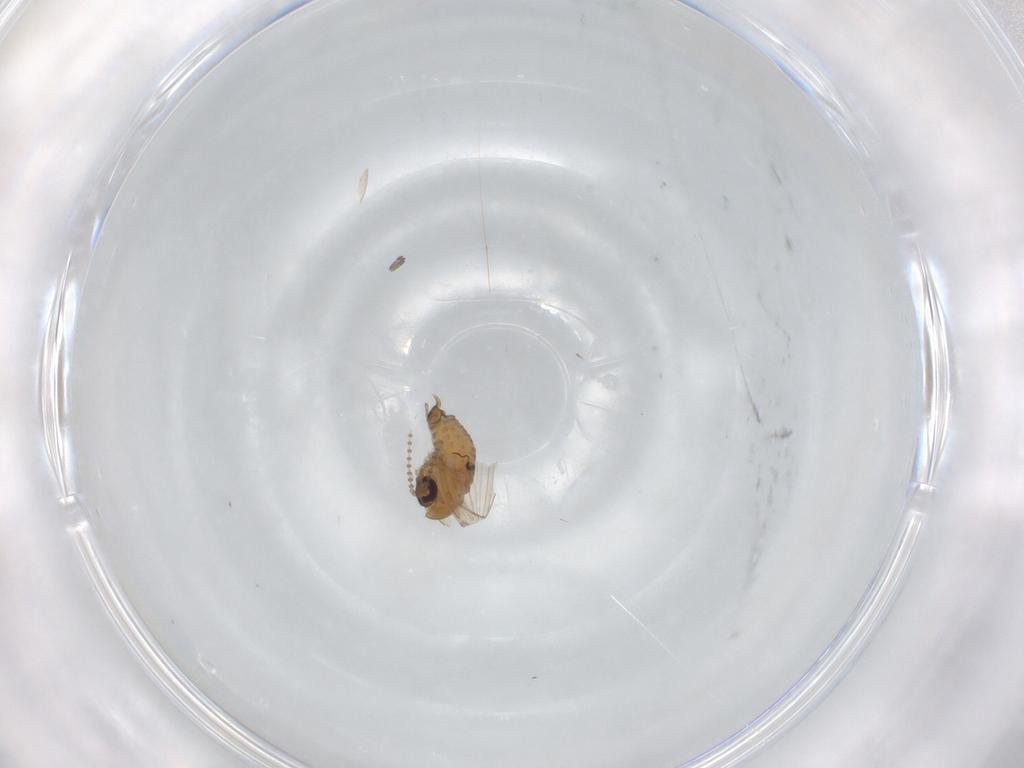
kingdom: Animalia
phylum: Arthropoda
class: Insecta
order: Diptera
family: Psychodidae
